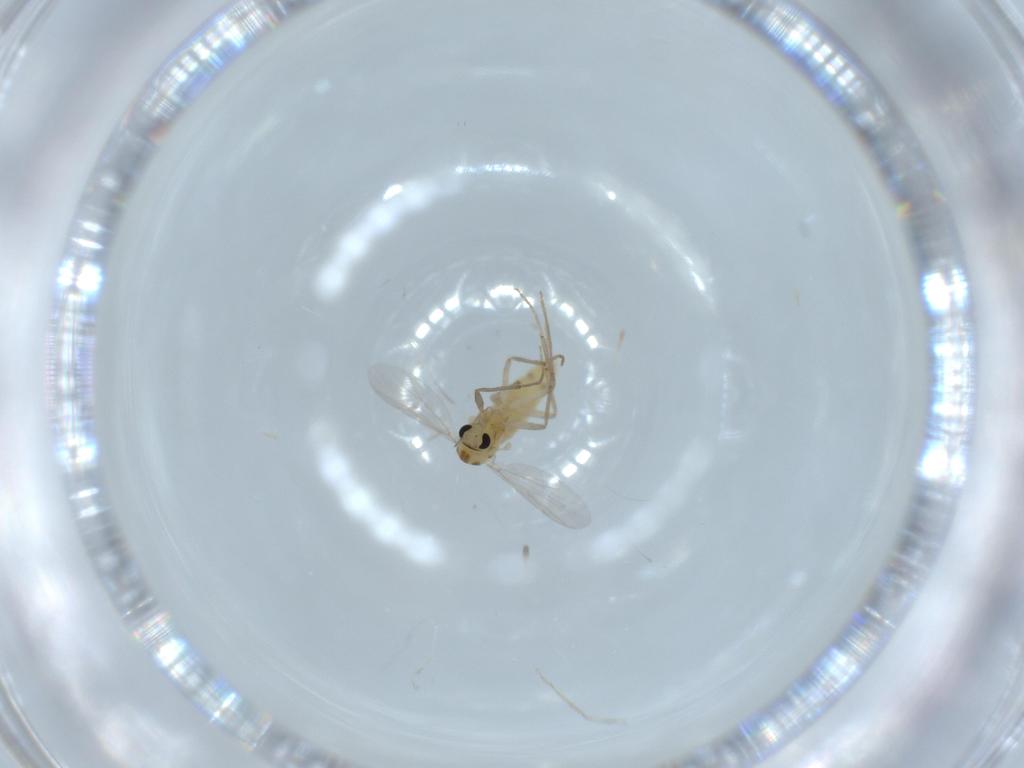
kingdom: Animalia
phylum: Arthropoda
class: Insecta
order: Diptera
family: Chironomidae
